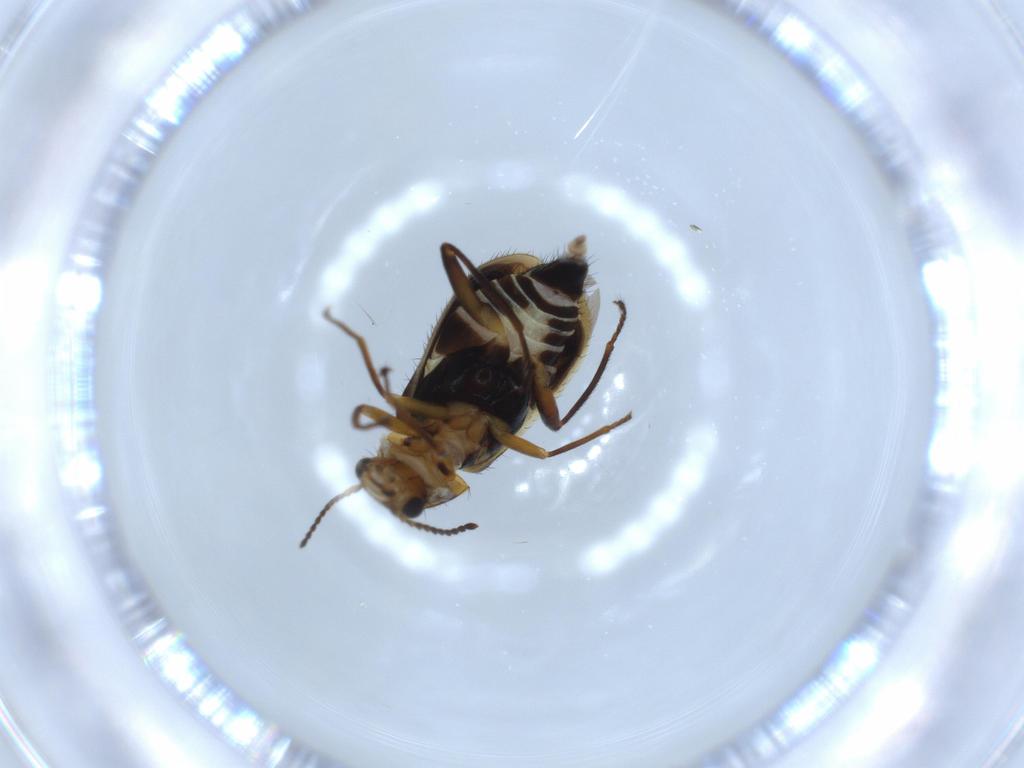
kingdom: Animalia
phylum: Arthropoda
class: Insecta
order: Coleoptera
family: Melyridae
